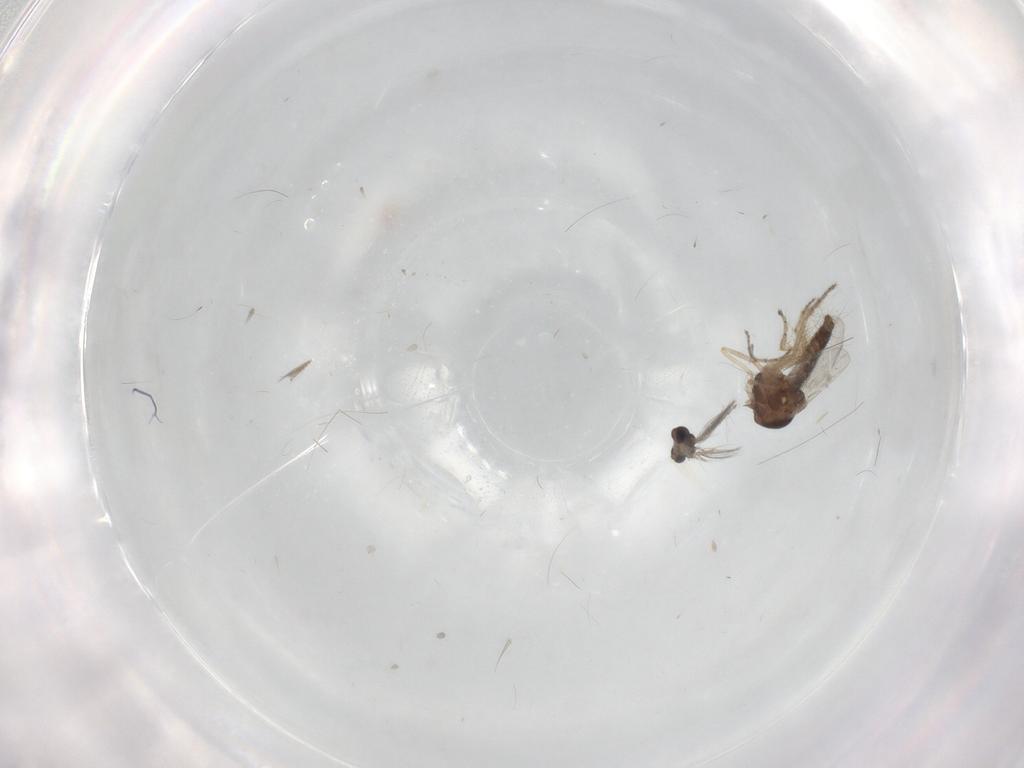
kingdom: Animalia
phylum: Arthropoda
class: Insecta
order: Diptera
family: Ceratopogonidae
